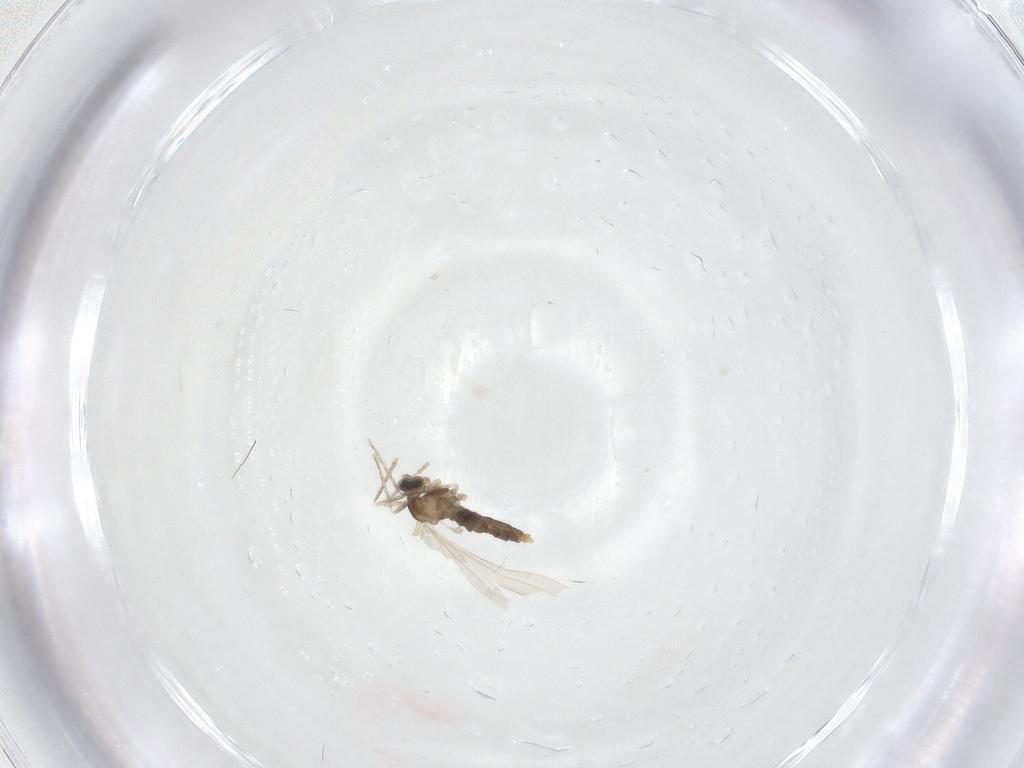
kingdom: Animalia
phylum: Arthropoda
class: Insecta
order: Diptera
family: Cecidomyiidae
